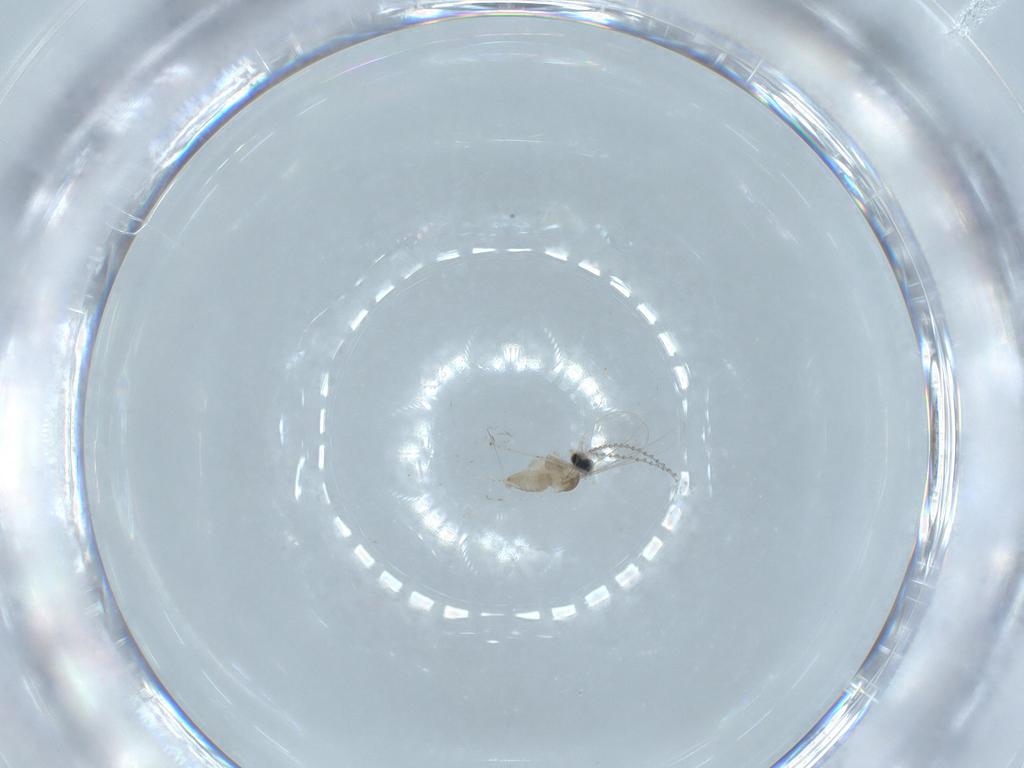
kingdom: Animalia
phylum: Arthropoda
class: Insecta
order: Diptera
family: Cecidomyiidae
